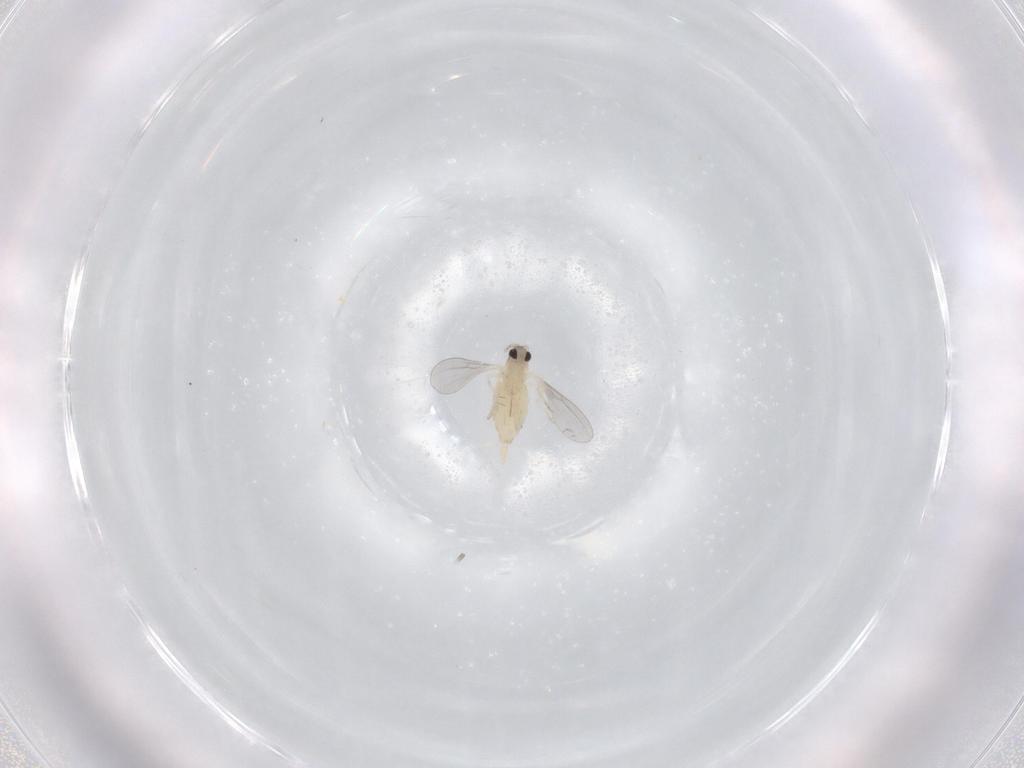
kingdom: Animalia
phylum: Arthropoda
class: Insecta
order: Diptera
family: Cecidomyiidae
